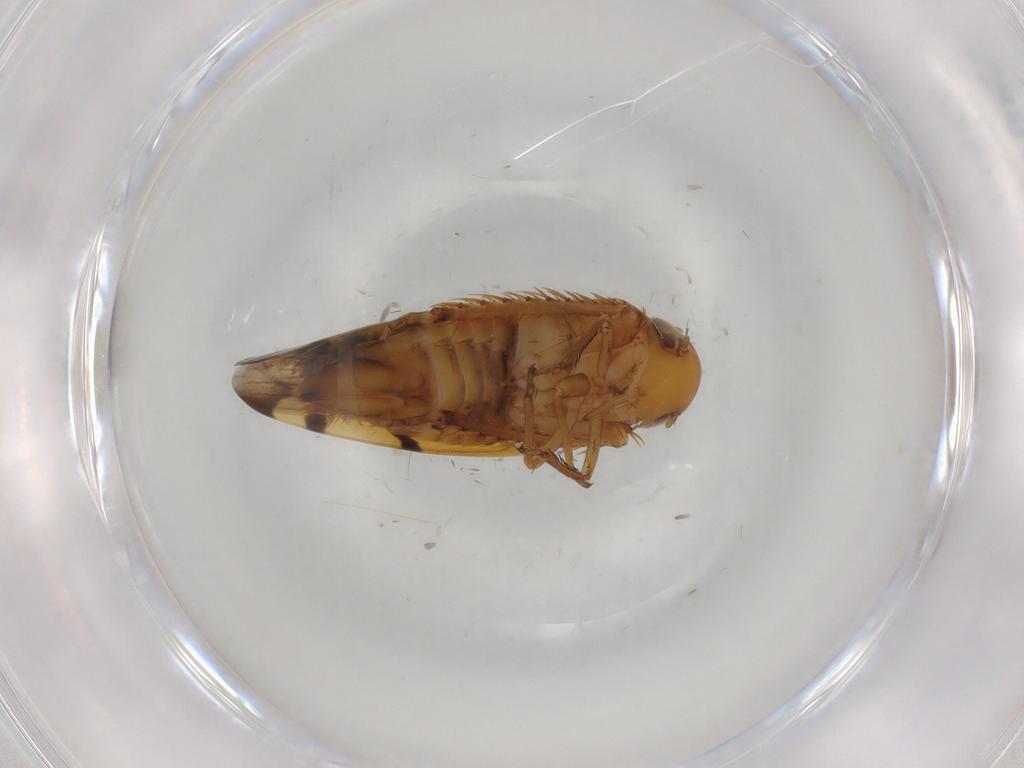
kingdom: Animalia
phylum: Arthropoda
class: Insecta
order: Hemiptera
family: Cicadellidae
